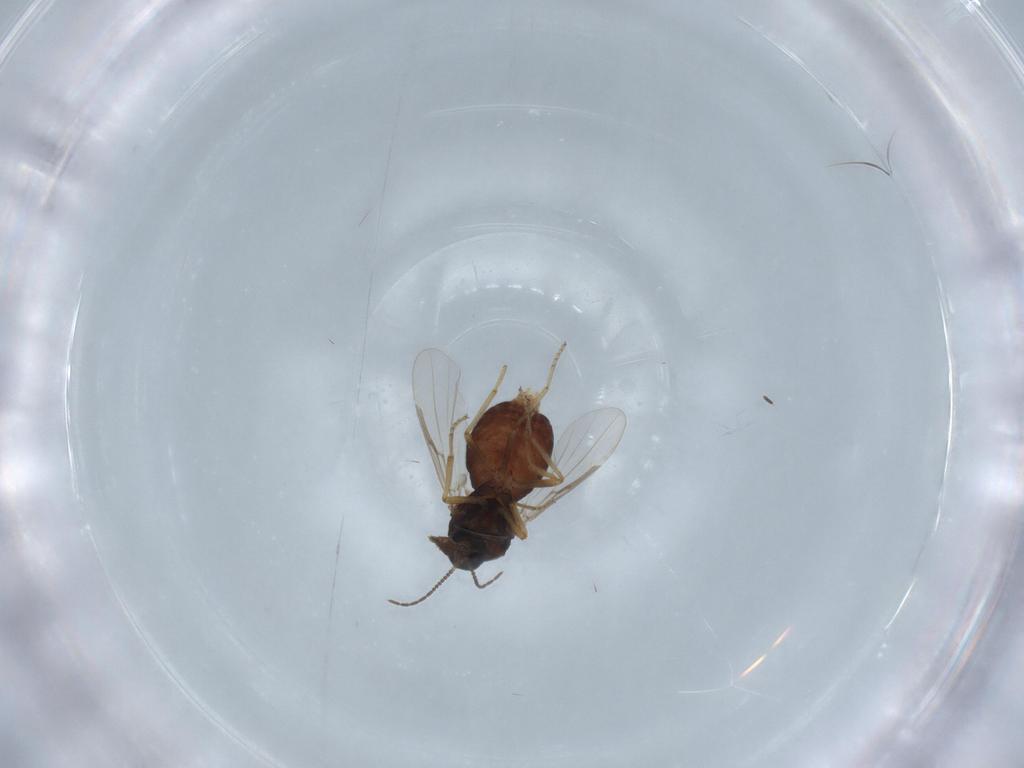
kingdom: Animalia
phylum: Arthropoda
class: Insecta
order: Diptera
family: Ceratopogonidae
